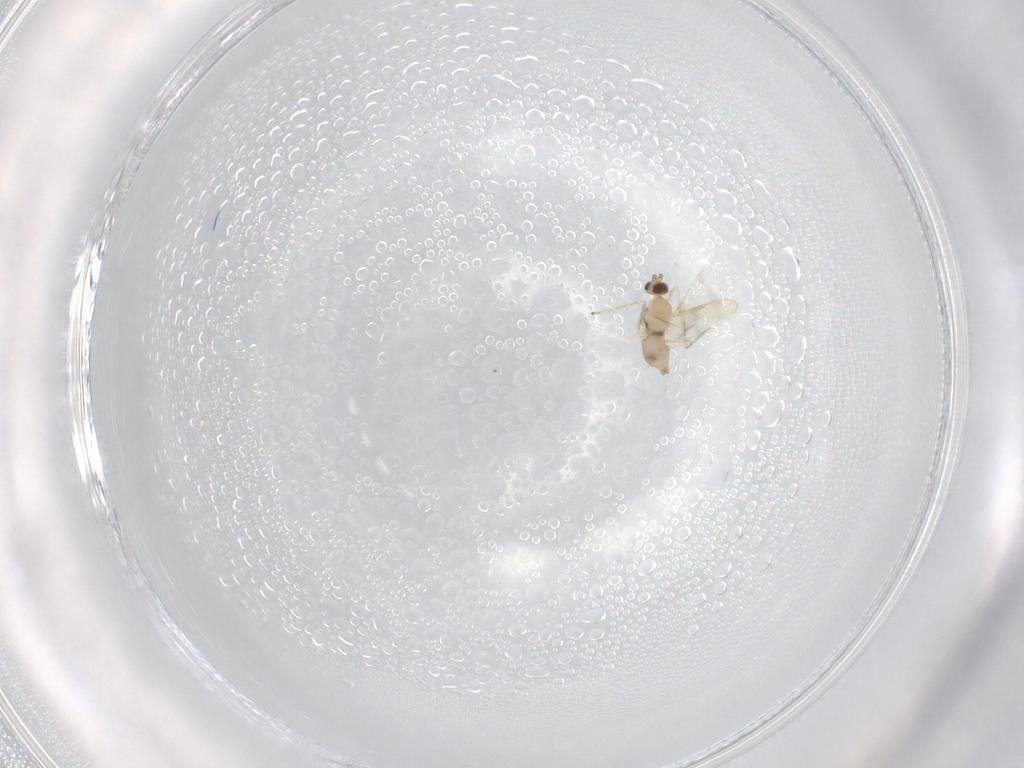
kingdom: Animalia
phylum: Arthropoda
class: Insecta
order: Diptera
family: Cecidomyiidae
